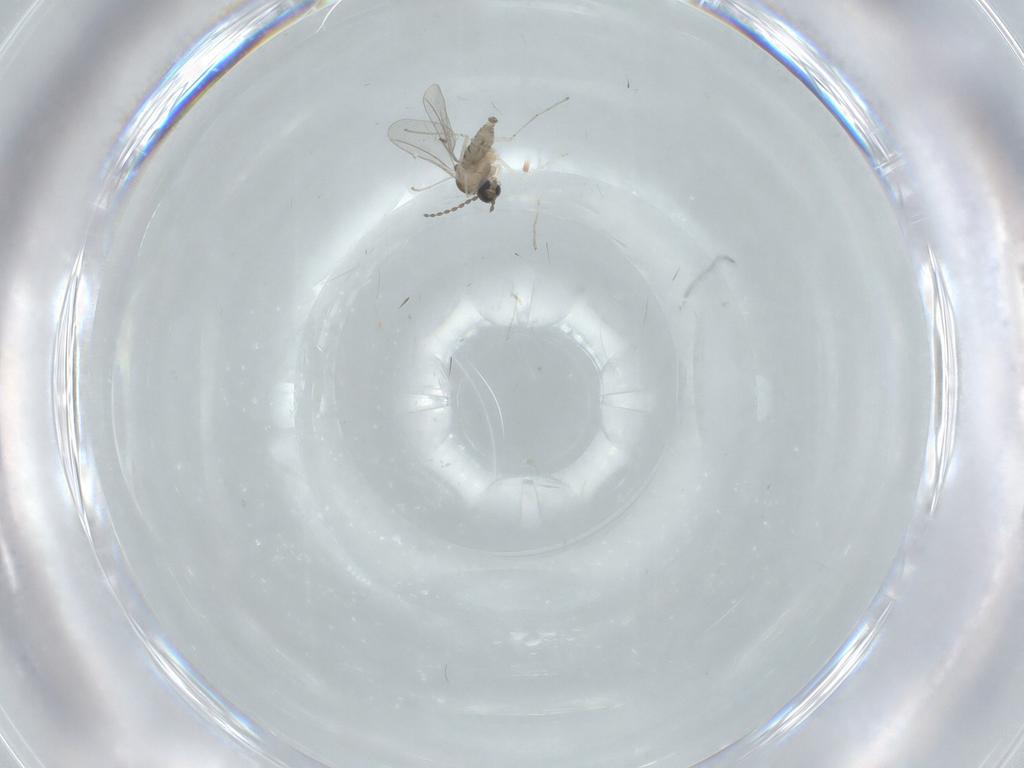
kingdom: Animalia
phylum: Arthropoda
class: Insecta
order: Diptera
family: Cecidomyiidae
